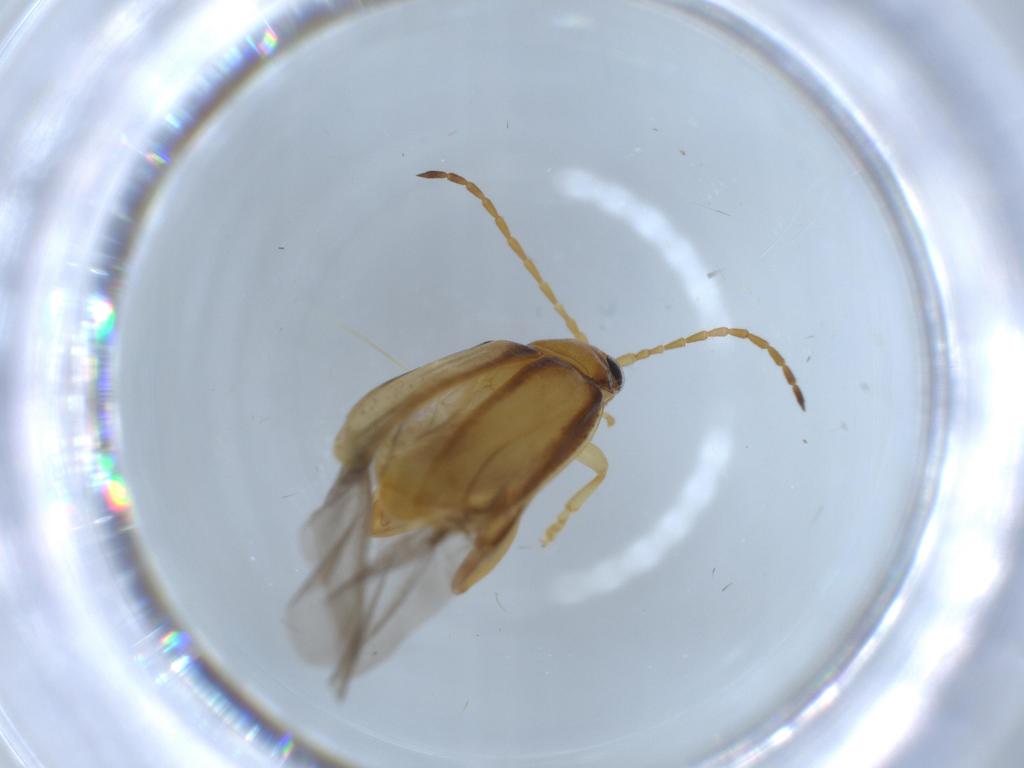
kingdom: Animalia
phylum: Arthropoda
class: Insecta
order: Coleoptera
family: Chrysomelidae
